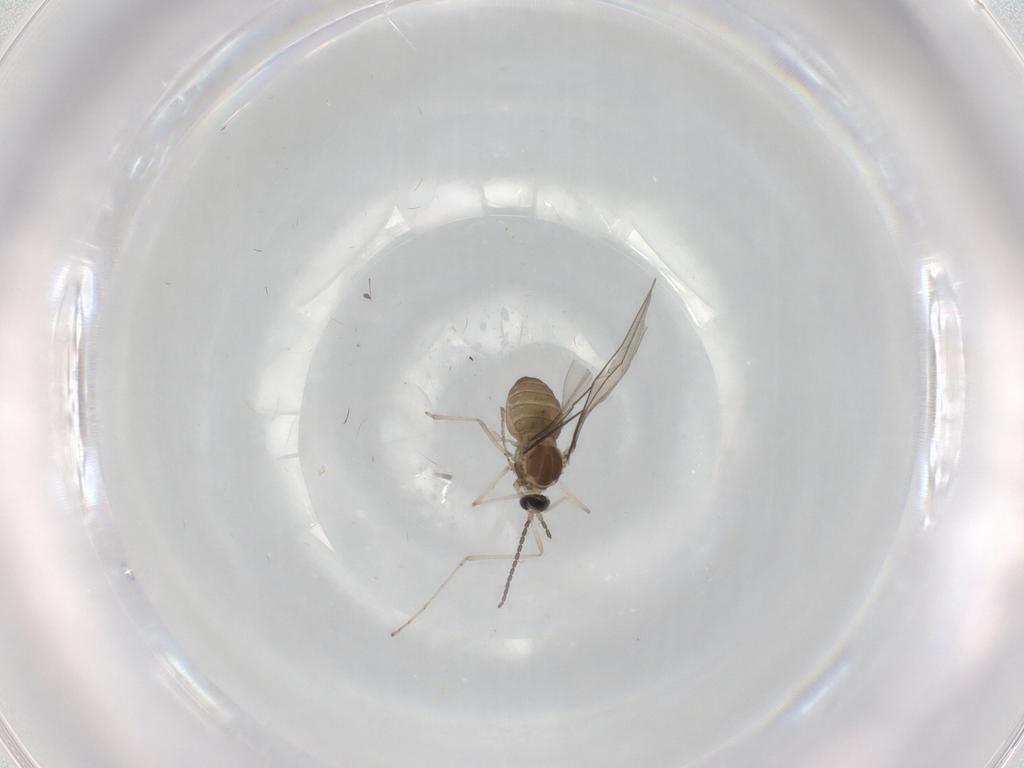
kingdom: Animalia
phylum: Arthropoda
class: Insecta
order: Diptera
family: Cecidomyiidae
